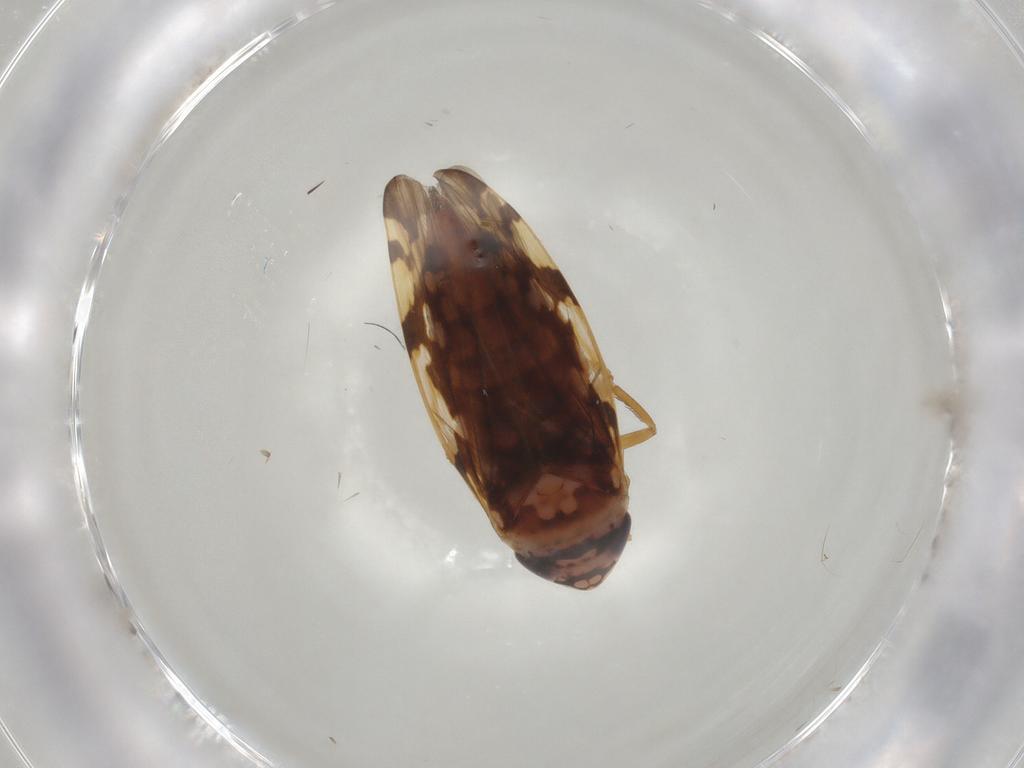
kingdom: Animalia
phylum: Arthropoda
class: Insecta
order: Hemiptera
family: Cicadellidae
